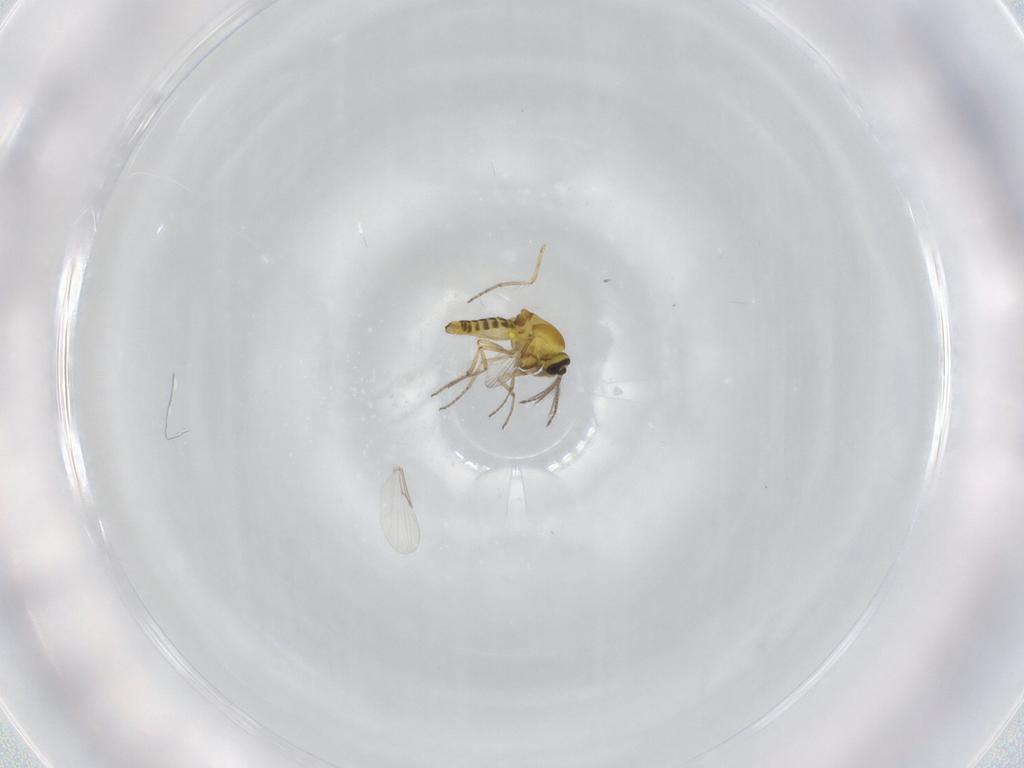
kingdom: Animalia
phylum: Arthropoda
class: Insecta
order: Diptera
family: Ceratopogonidae
